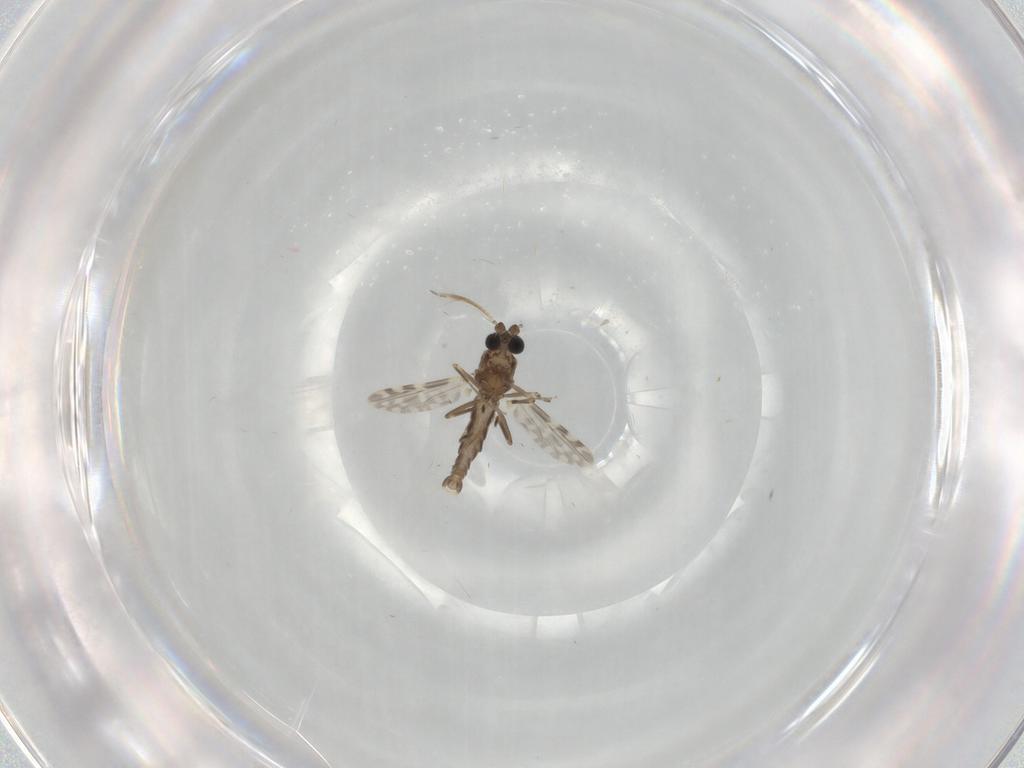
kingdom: Animalia
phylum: Arthropoda
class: Insecta
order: Diptera
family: Ceratopogonidae
